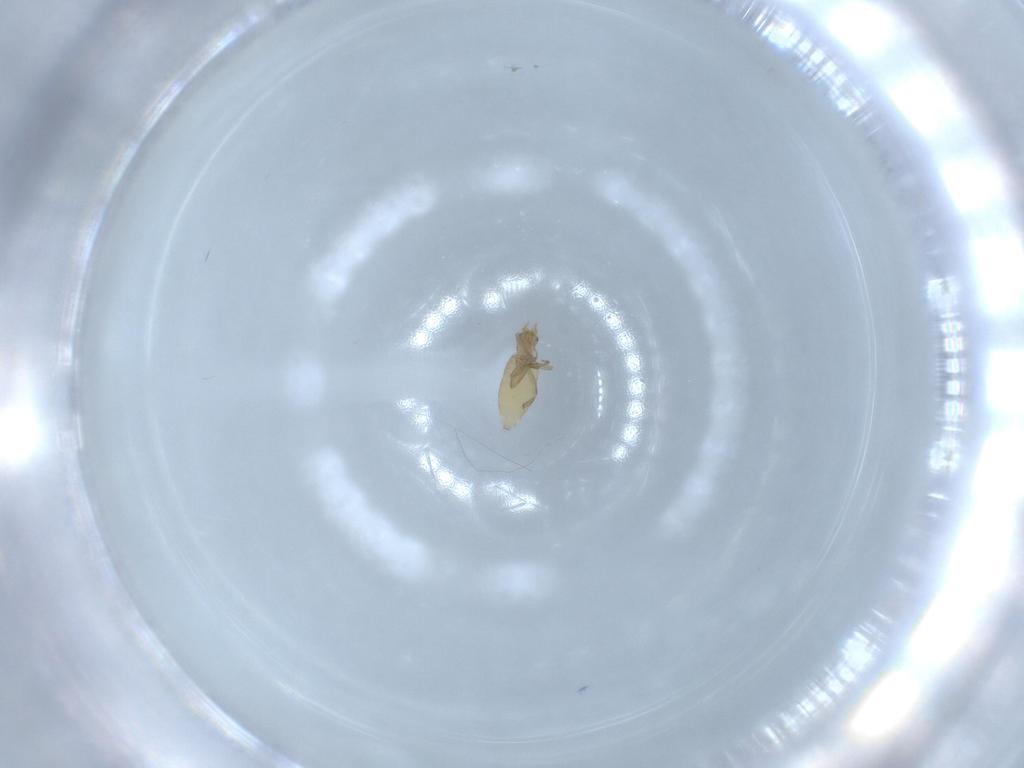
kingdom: Animalia
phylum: Arthropoda
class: Insecta
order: Diptera
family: Phoridae
